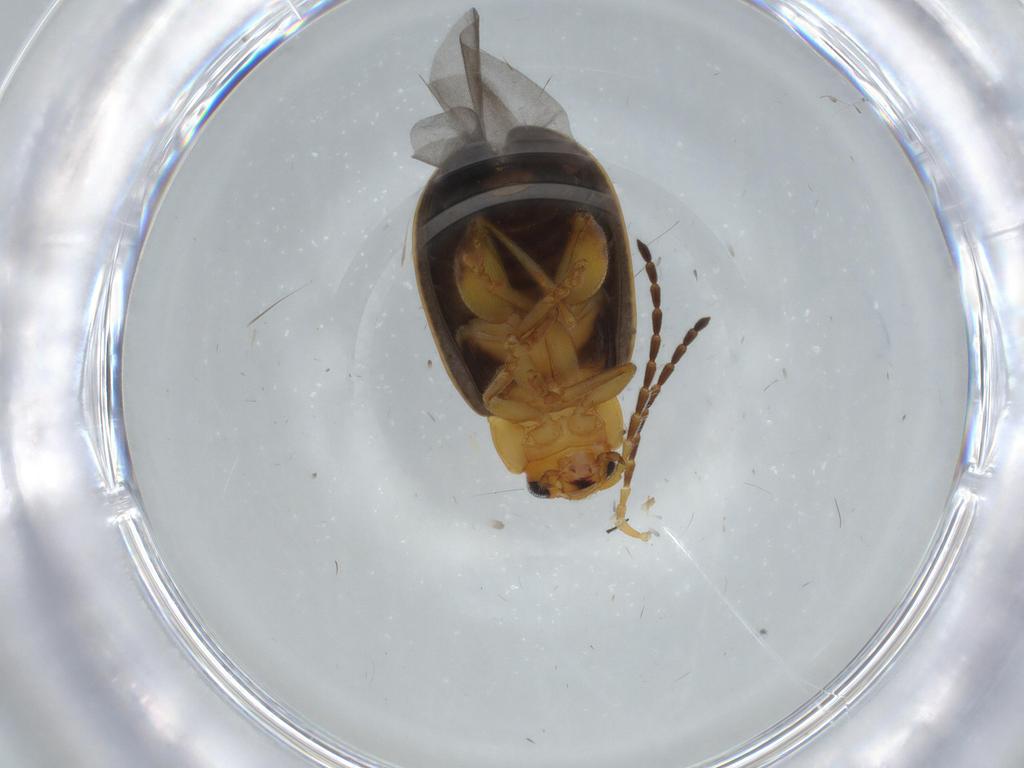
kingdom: Animalia
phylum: Arthropoda
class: Insecta
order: Coleoptera
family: Chrysomelidae
